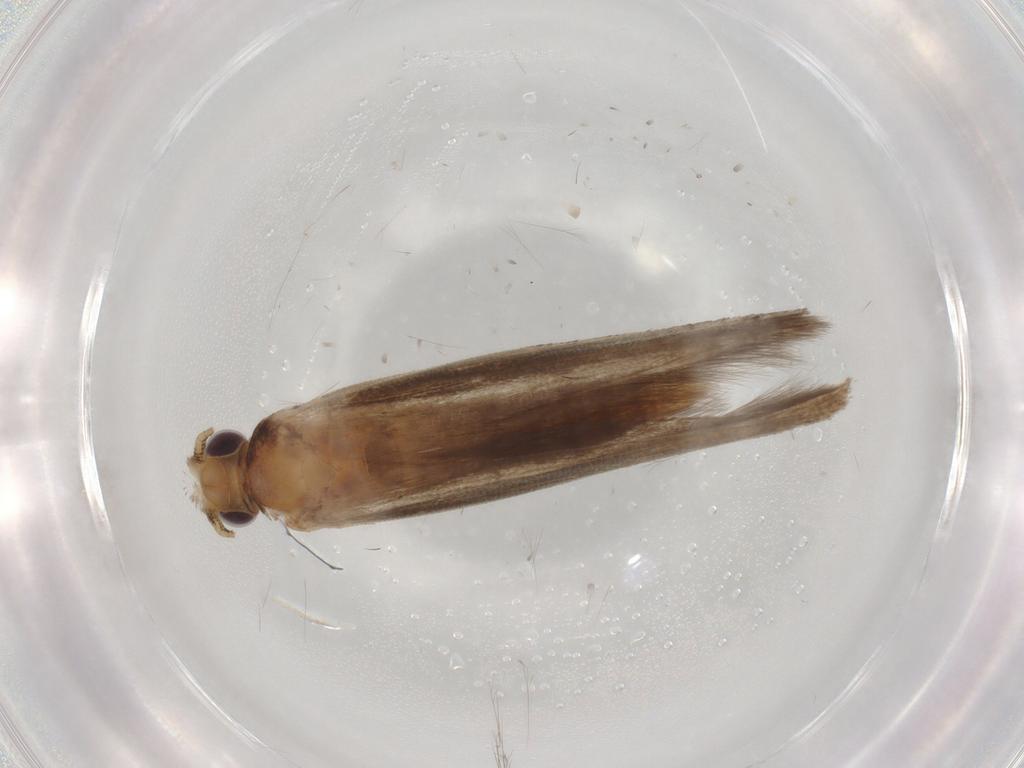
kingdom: Animalia
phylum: Arthropoda
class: Insecta
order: Lepidoptera
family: Yponomeutidae
